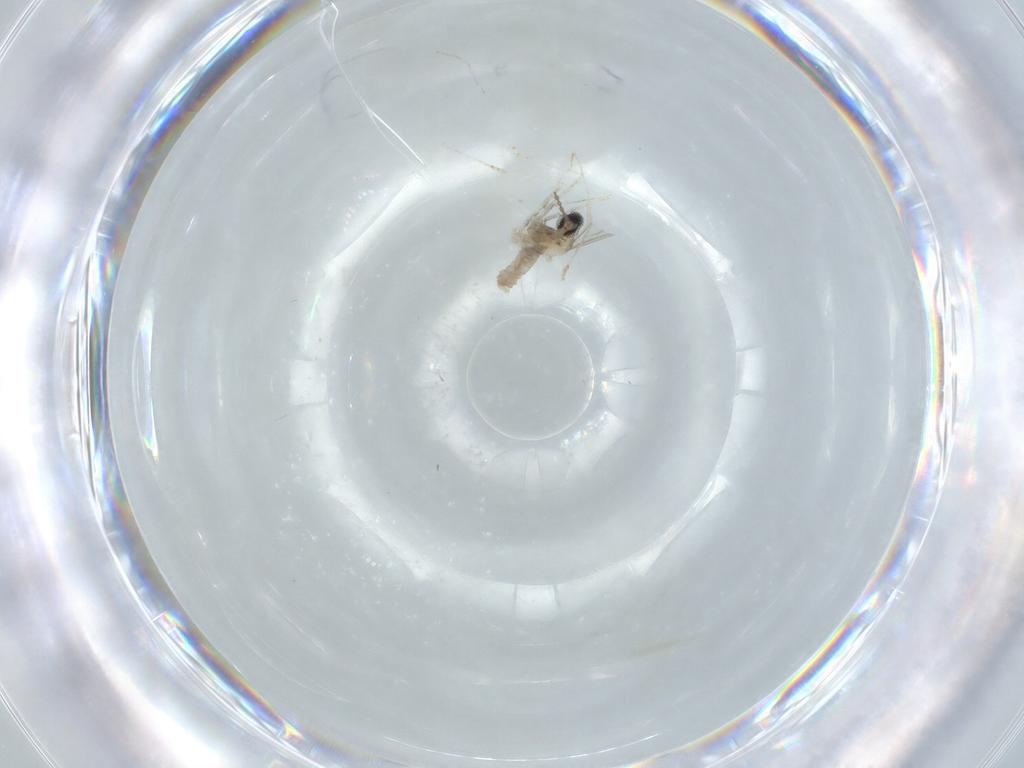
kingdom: Animalia
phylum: Arthropoda
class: Insecta
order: Diptera
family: Cecidomyiidae
